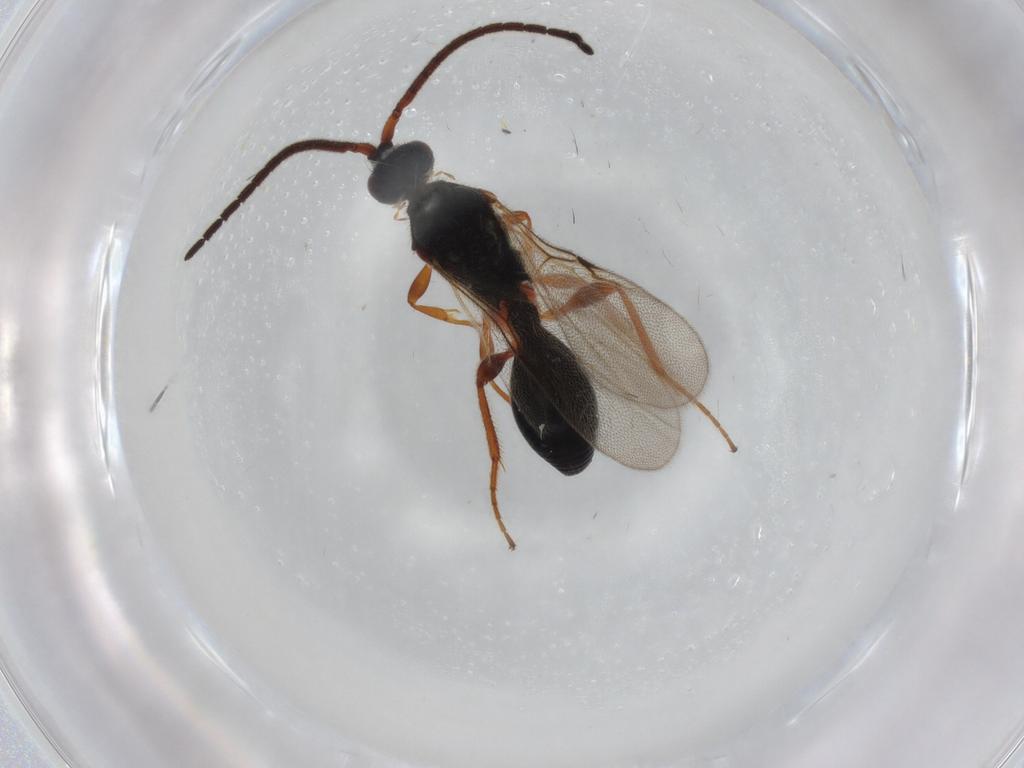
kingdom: Animalia
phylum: Arthropoda
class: Insecta
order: Hymenoptera
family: Diapriidae
